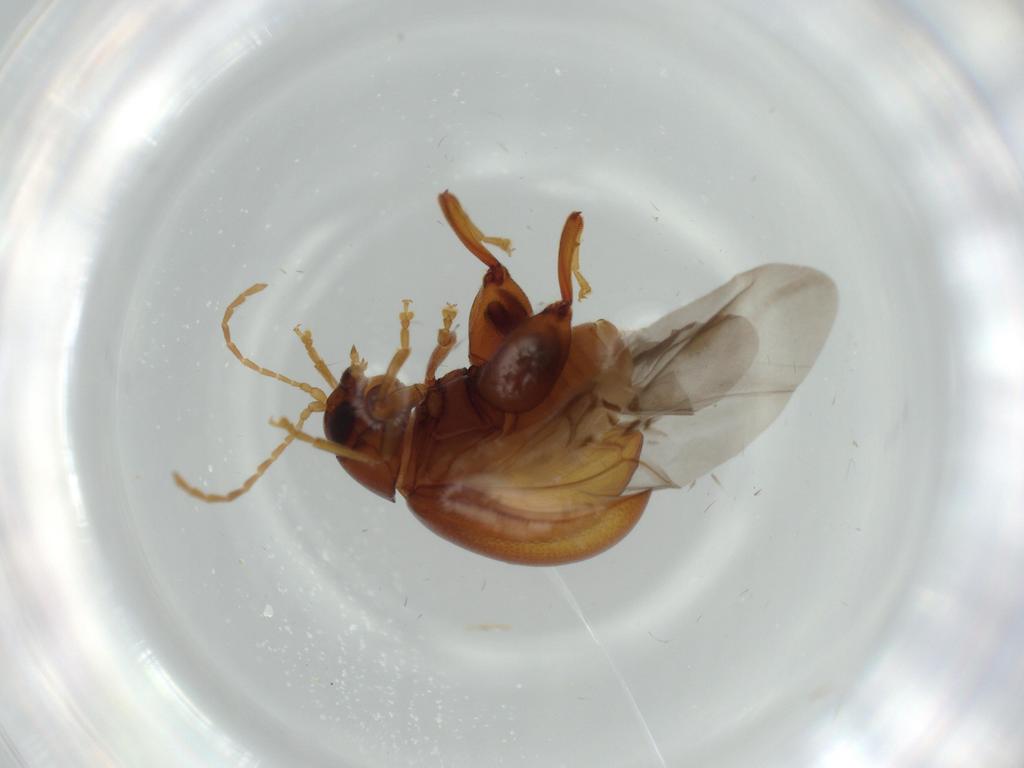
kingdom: Animalia
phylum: Arthropoda
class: Insecta
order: Coleoptera
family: Chrysomelidae
